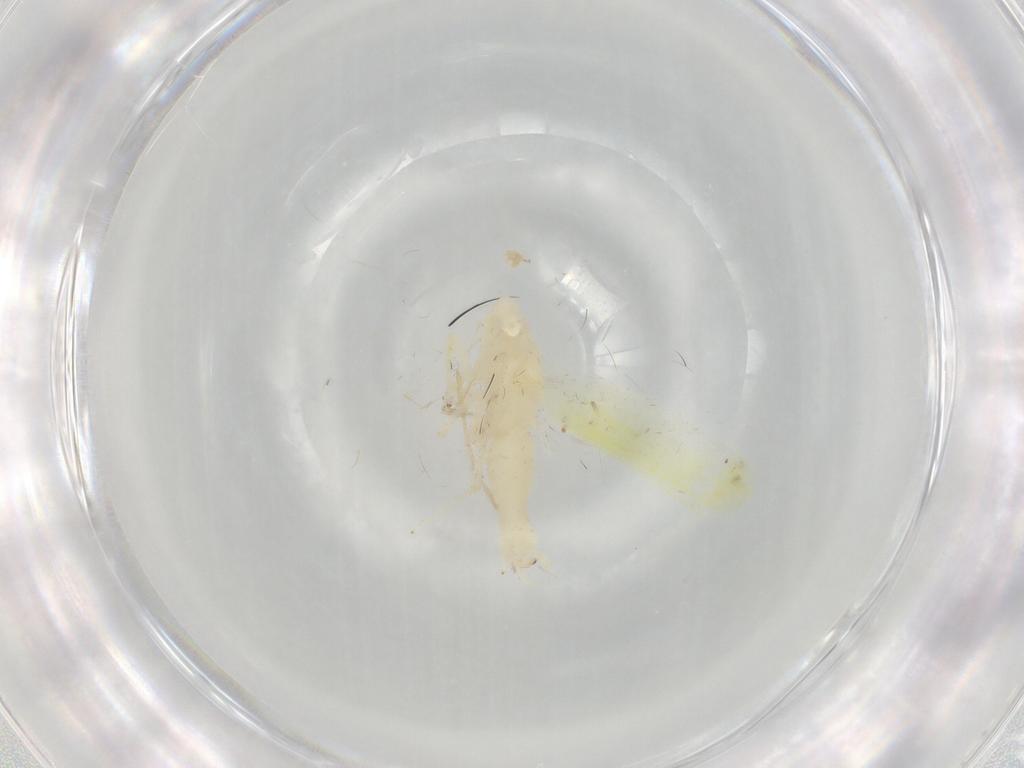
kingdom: Animalia
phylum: Arthropoda
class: Insecta
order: Hemiptera
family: Cicadellidae
